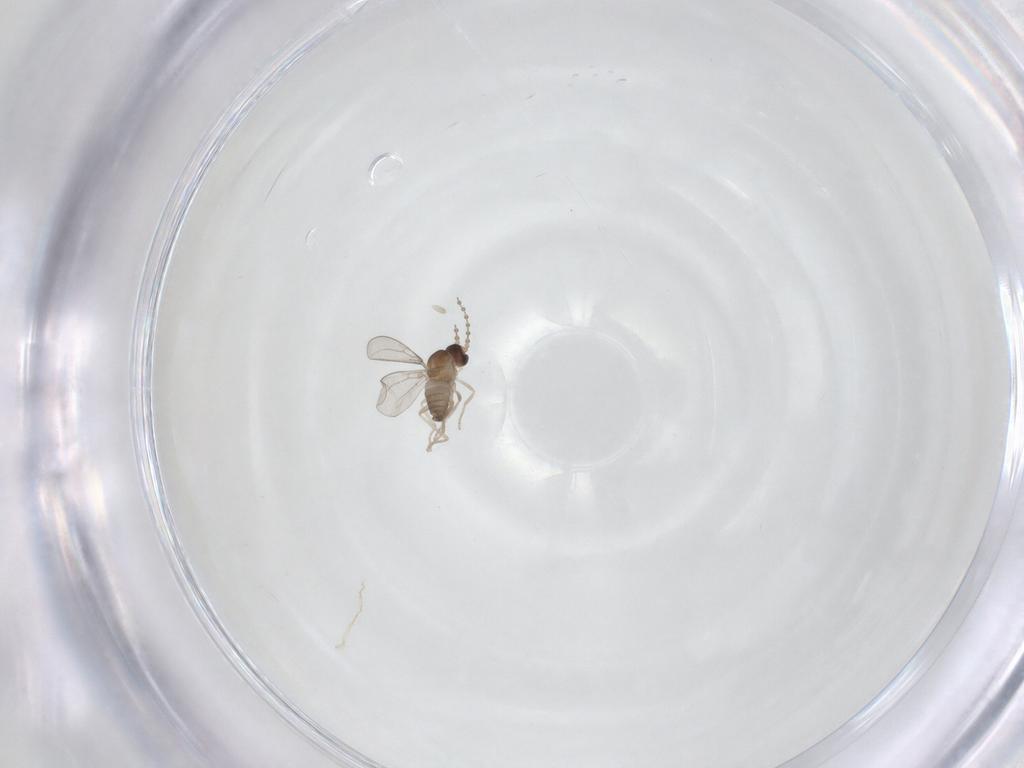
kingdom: Animalia
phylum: Arthropoda
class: Insecta
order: Diptera
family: Cecidomyiidae
